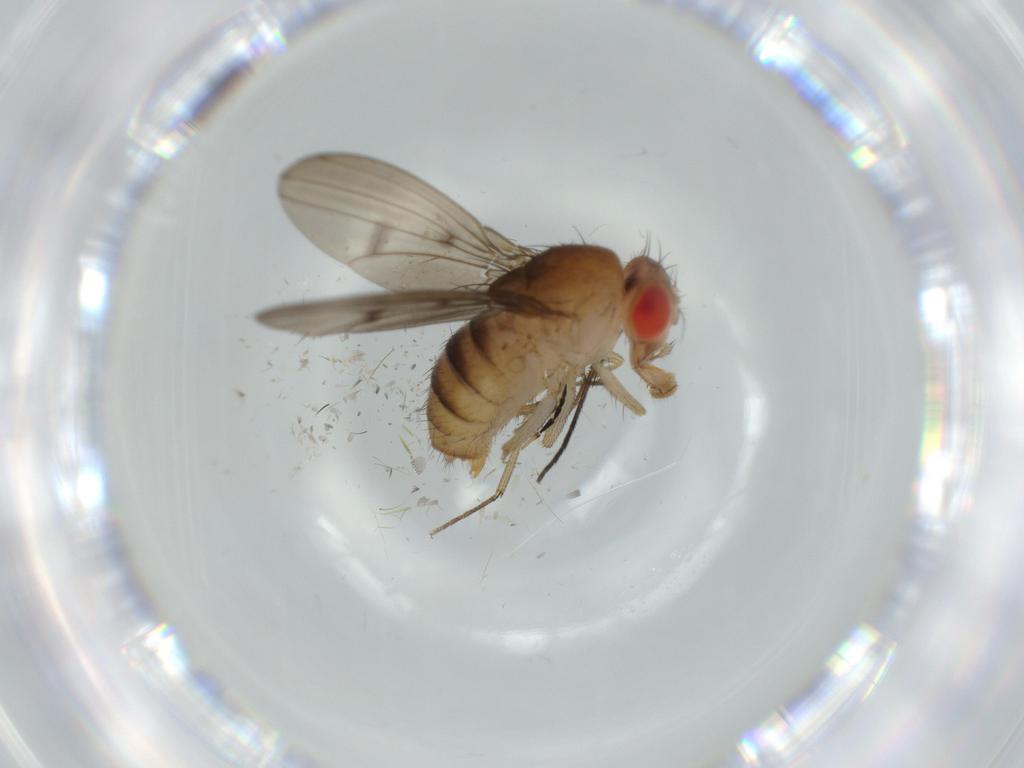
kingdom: Animalia
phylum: Arthropoda
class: Insecta
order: Diptera
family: Drosophilidae
